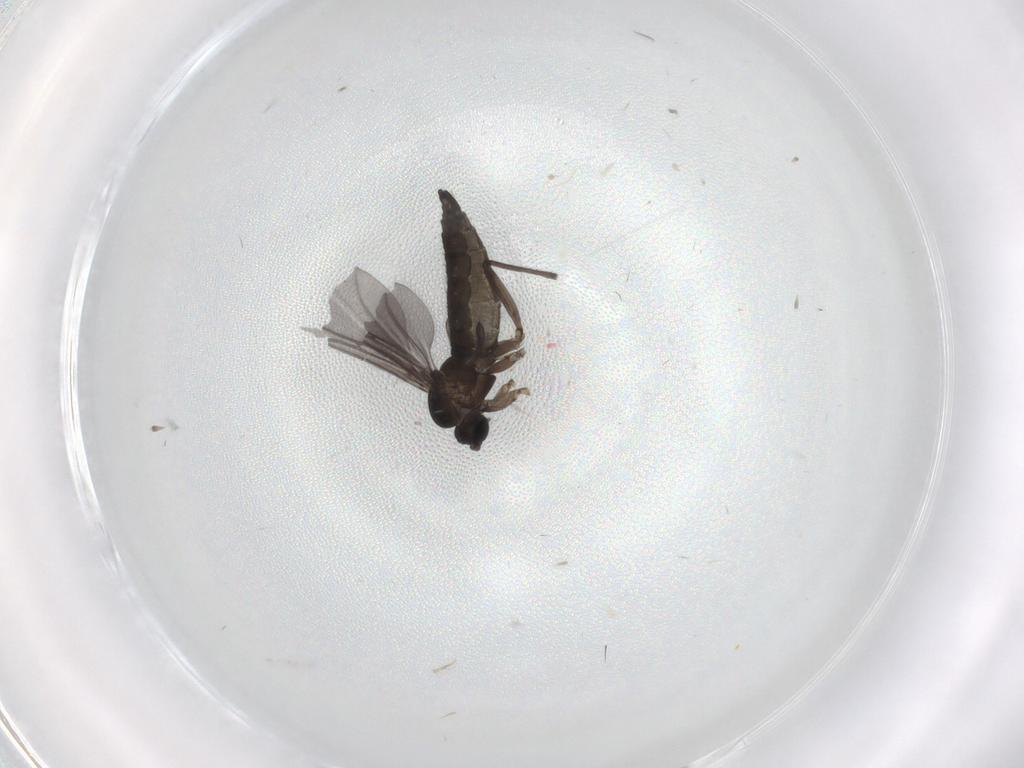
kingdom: Animalia
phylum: Arthropoda
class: Insecta
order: Diptera
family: Sciaridae
